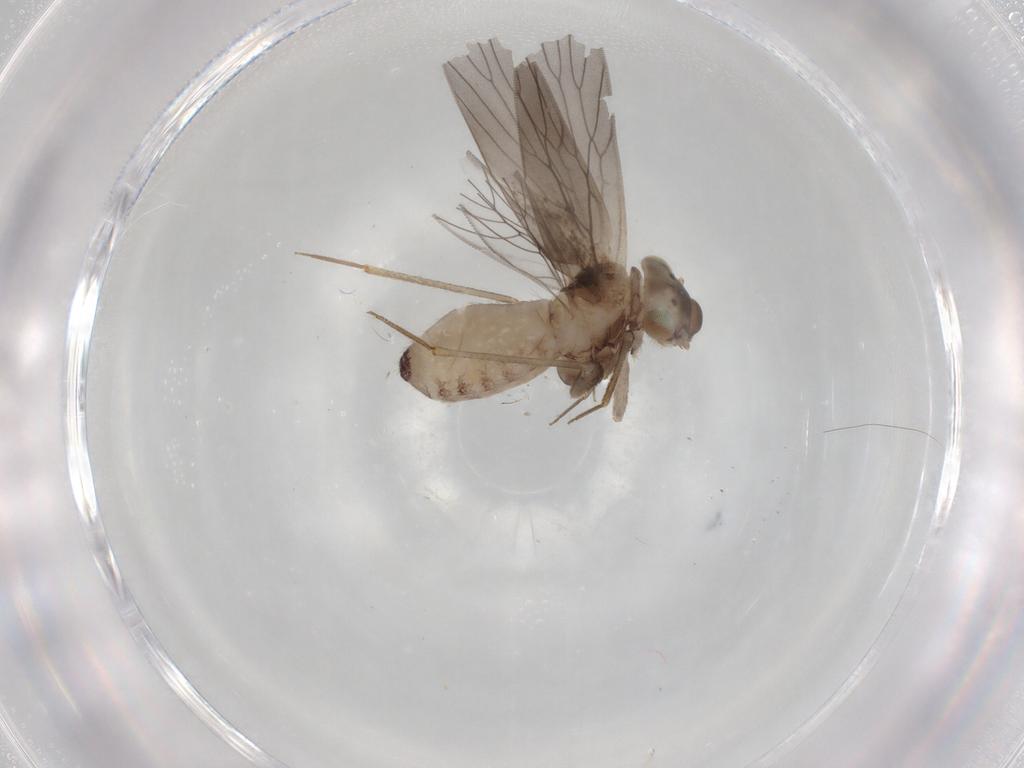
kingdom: Animalia
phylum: Arthropoda
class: Insecta
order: Psocodea
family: Lepidopsocidae
